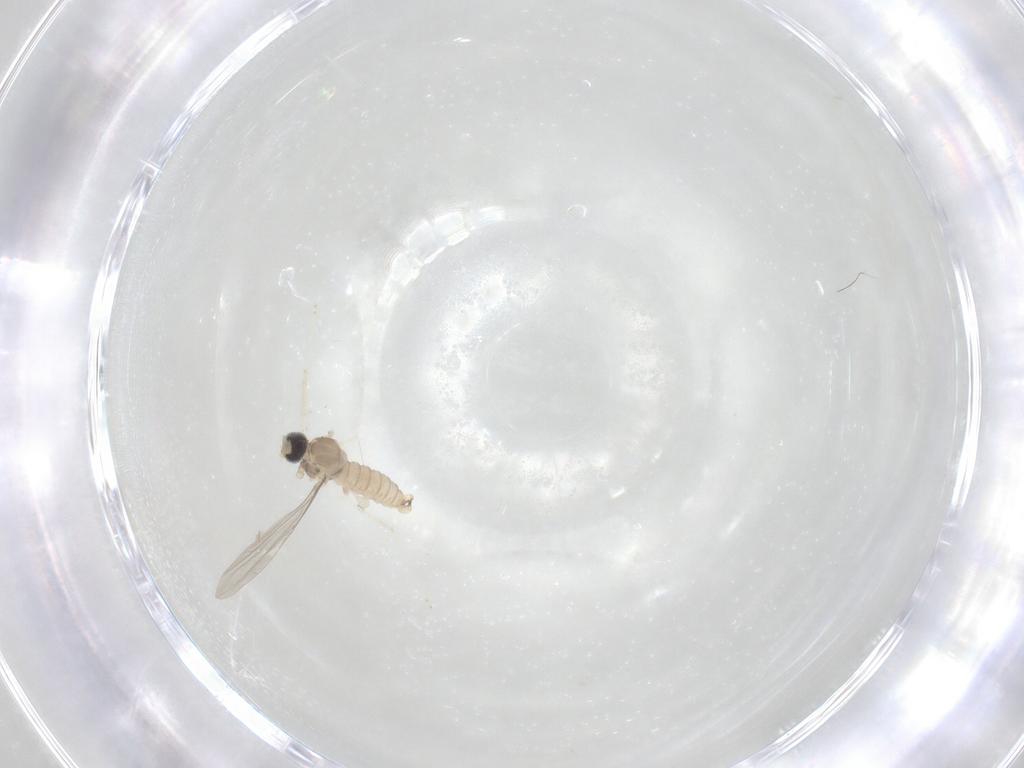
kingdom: Animalia
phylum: Arthropoda
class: Insecta
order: Diptera
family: Cecidomyiidae
